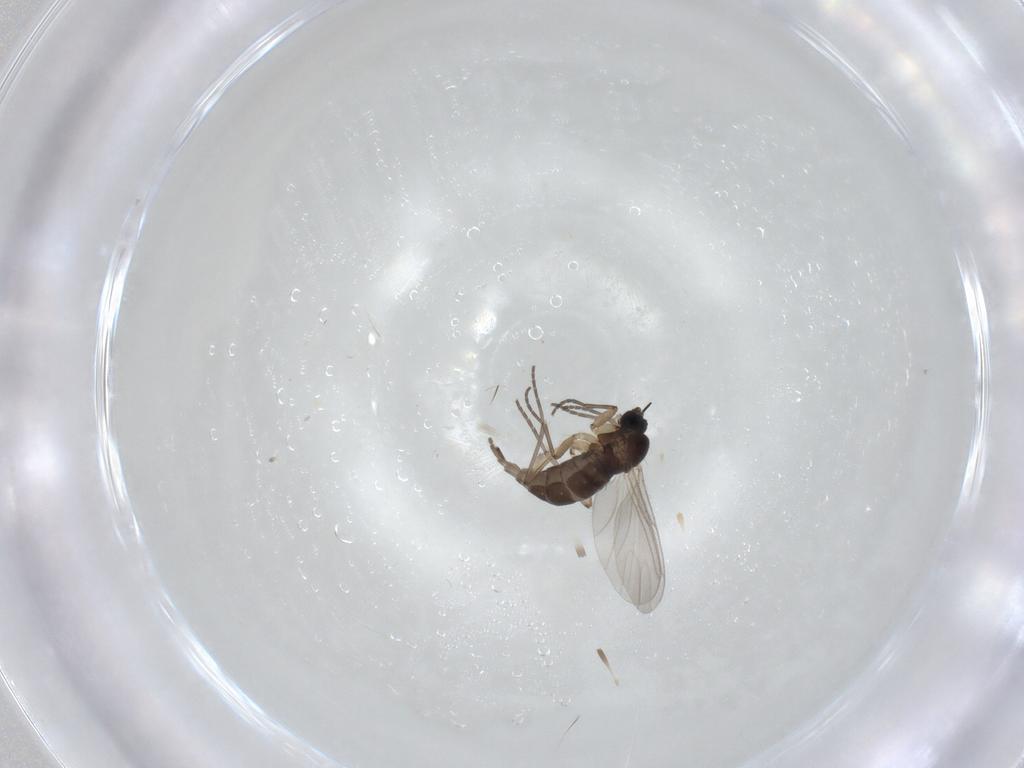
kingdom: Animalia
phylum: Arthropoda
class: Insecta
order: Diptera
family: Sciaridae
